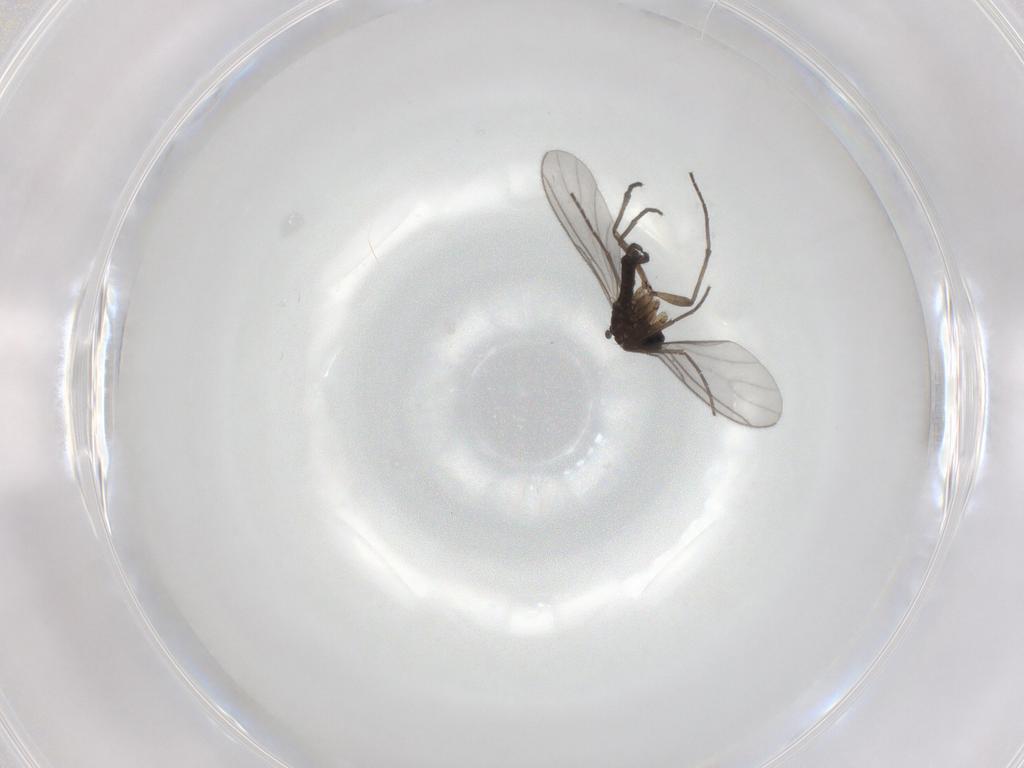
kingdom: Animalia
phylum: Arthropoda
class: Insecta
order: Diptera
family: Sciaridae
